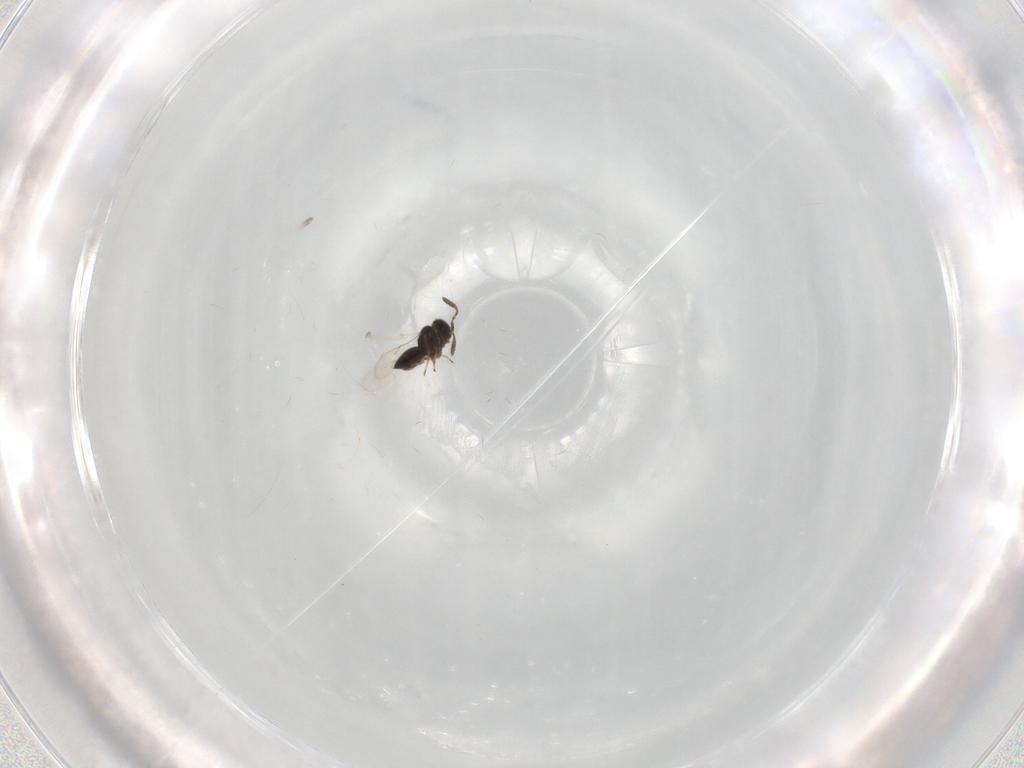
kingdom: Animalia
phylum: Arthropoda
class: Insecta
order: Hymenoptera
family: Scelionidae
